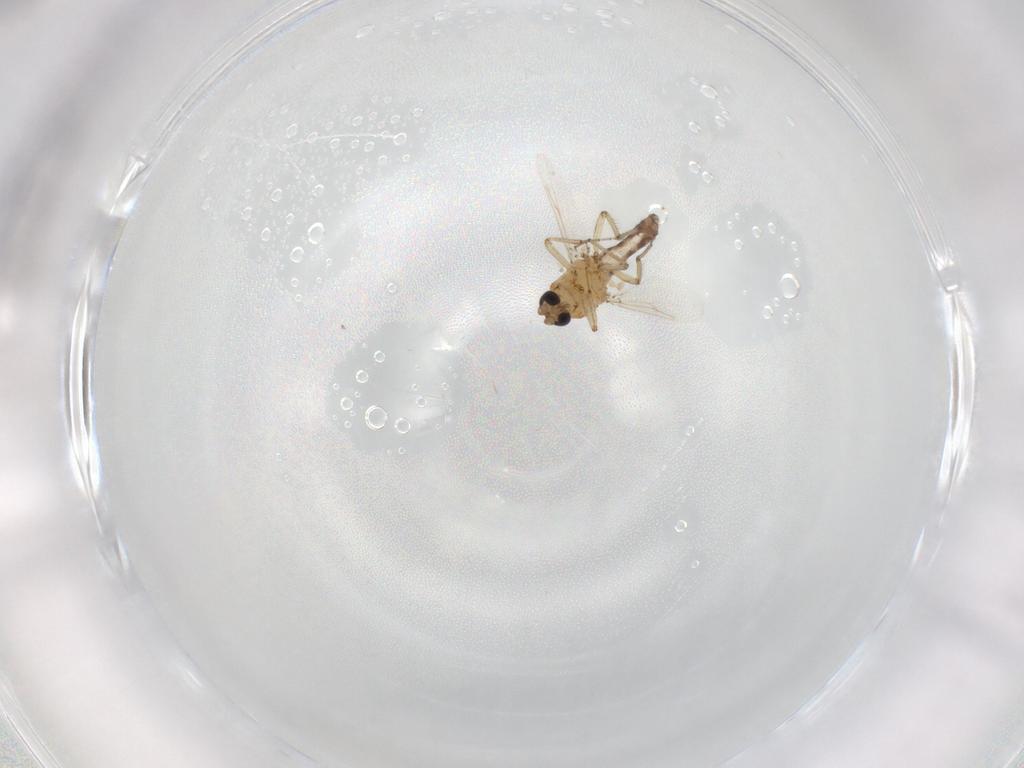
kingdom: Animalia
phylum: Arthropoda
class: Insecta
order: Diptera
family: Ceratopogonidae
